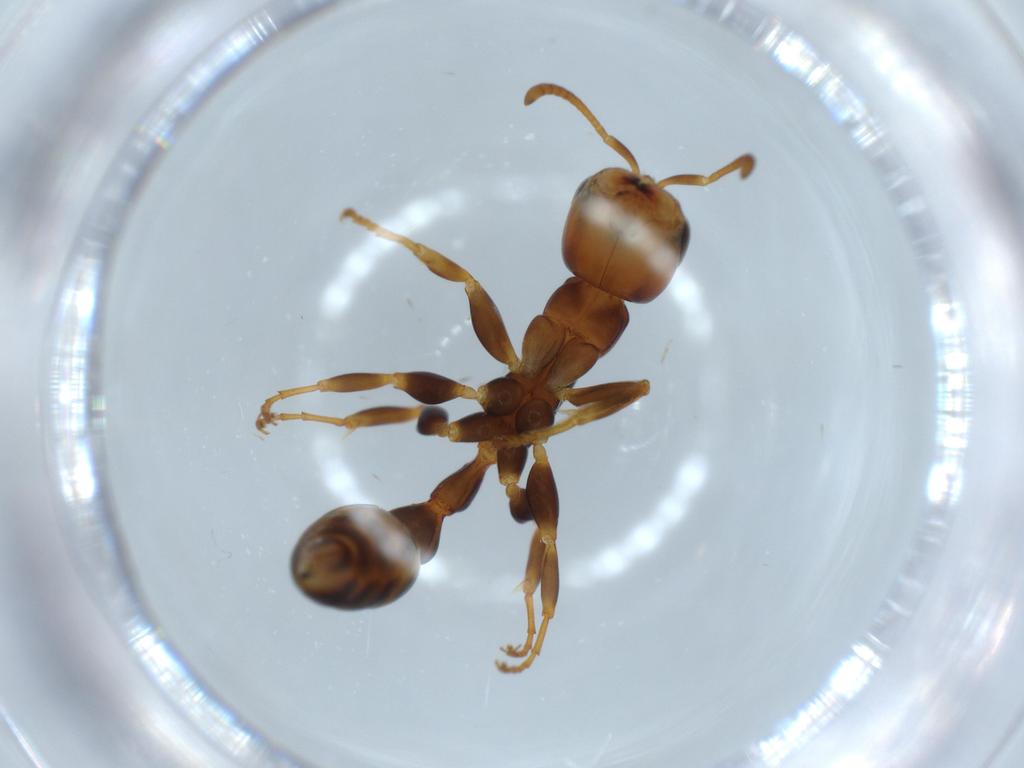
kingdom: Animalia
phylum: Arthropoda
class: Insecta
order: Hymenoptera
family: Formicidae
